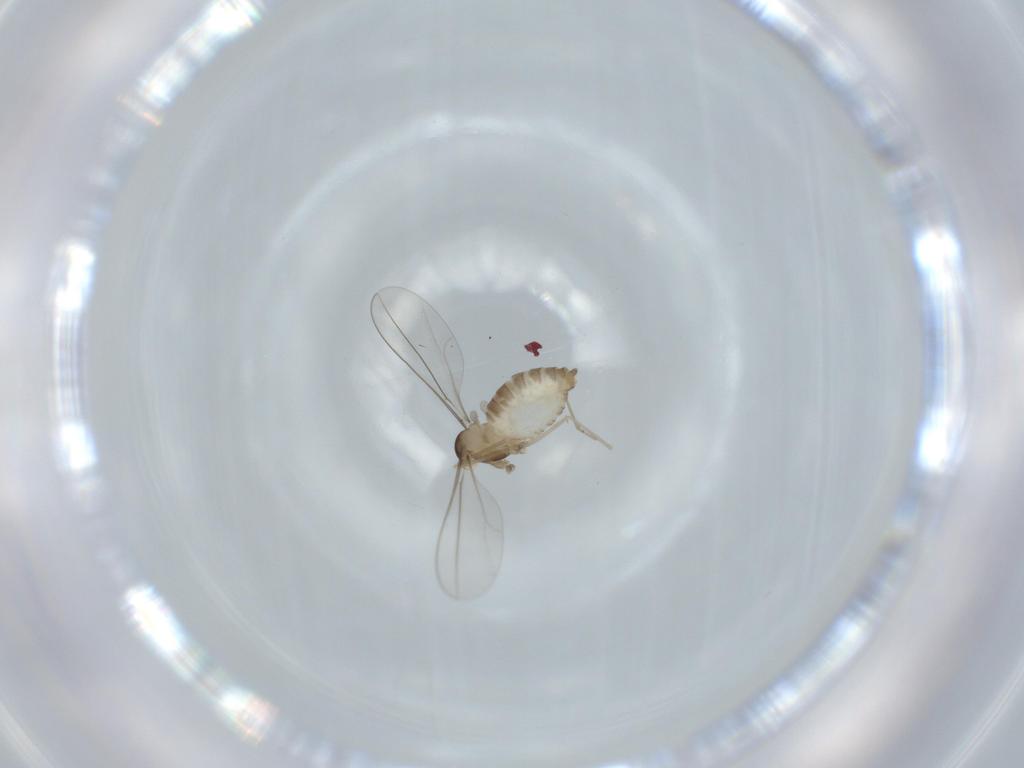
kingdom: Animalia
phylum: Arthropoda
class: Insecta
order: Diptera
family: Cecidomyiidae
